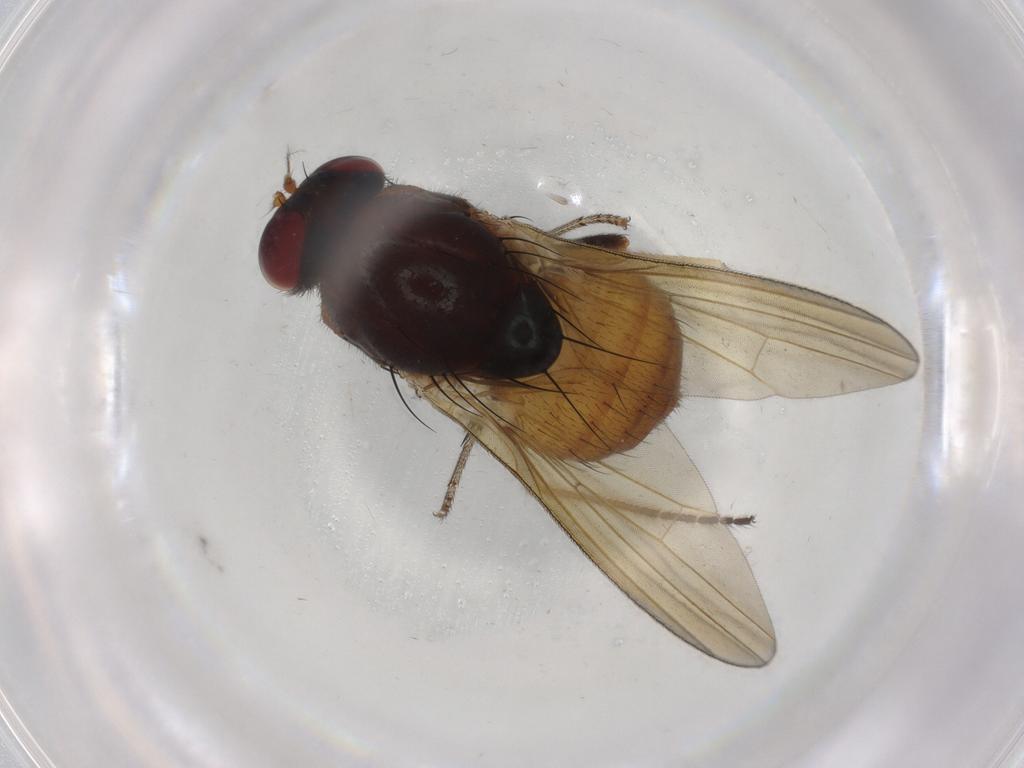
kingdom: Animalia
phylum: Arthropoda
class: Insecta
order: Diptera
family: Limoniidae
